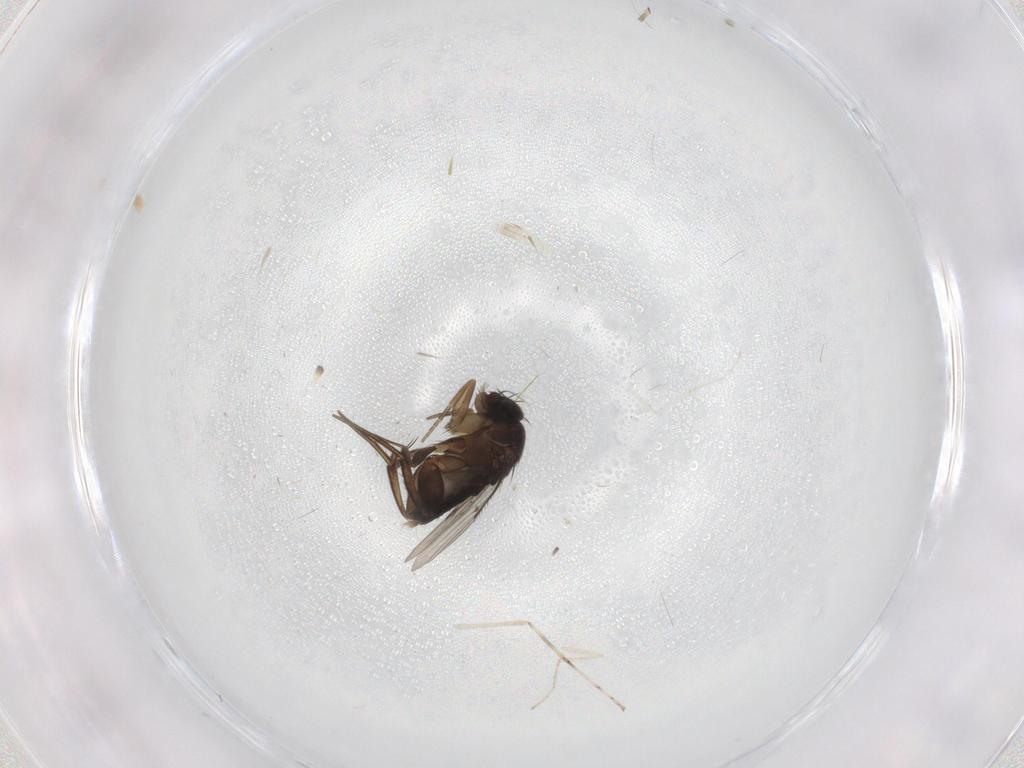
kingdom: Animalia
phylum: Arthropoda
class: Insecta
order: Diptera
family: Phoridae
